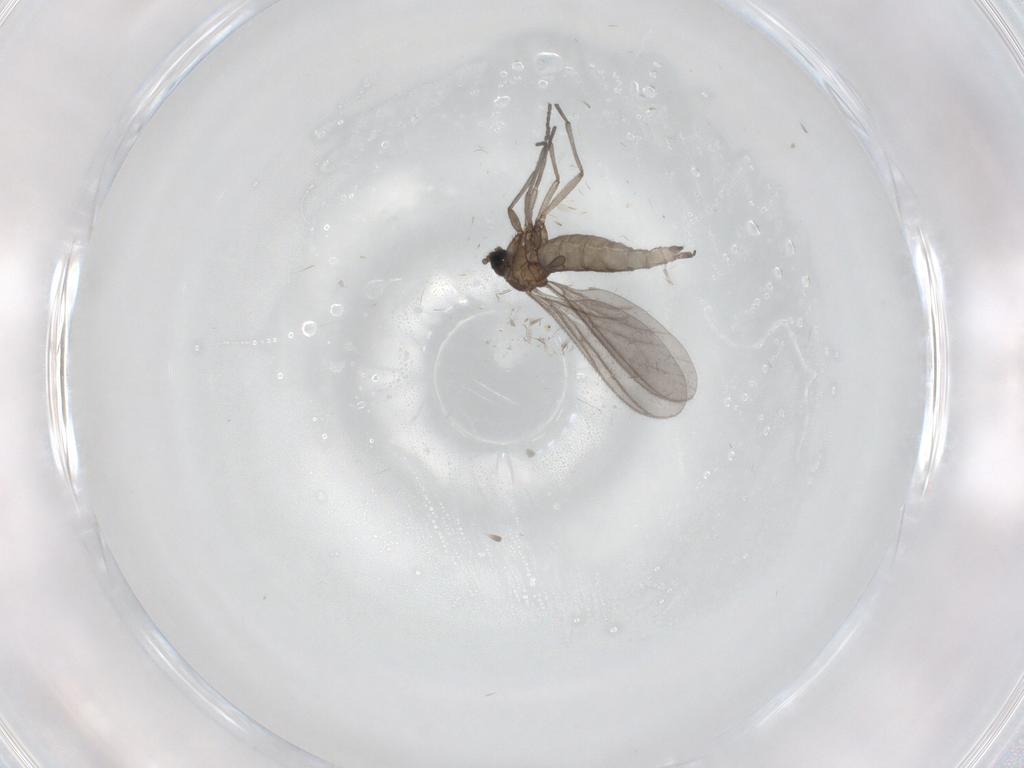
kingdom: Animalia
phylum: Arthropoda
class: Insecta
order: Diptera
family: Sciaridae
